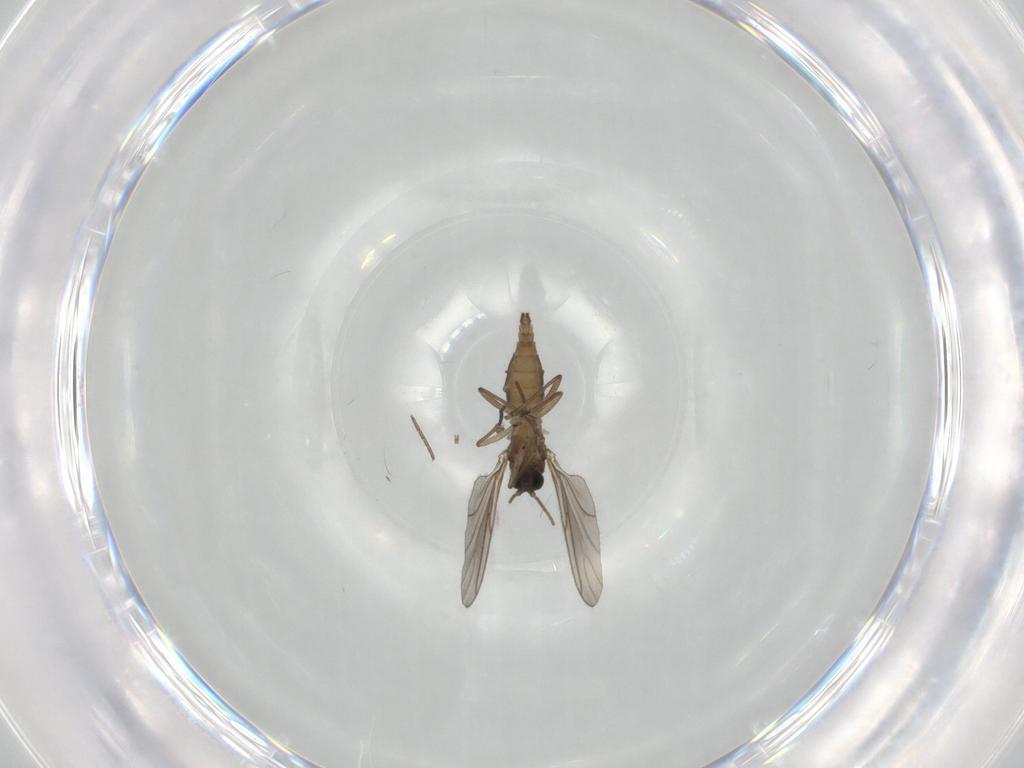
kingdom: Animalia
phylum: Arthropoda
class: Insecta
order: Diptera
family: Sciaridae
